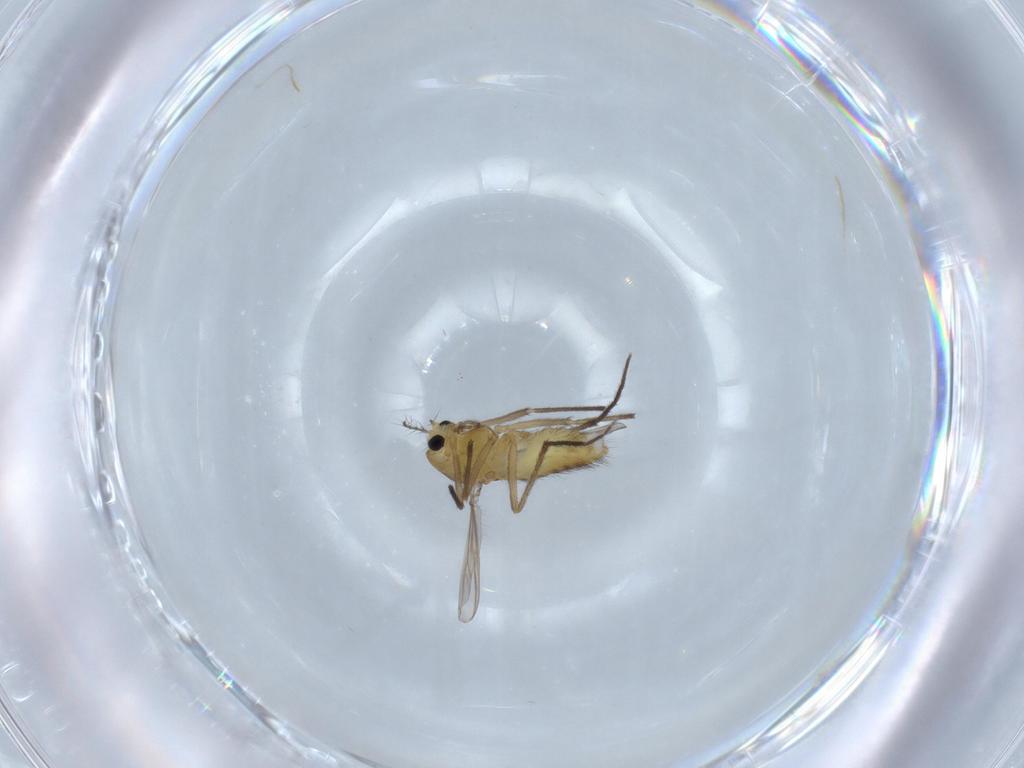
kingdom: Animalia
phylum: Arthropoda
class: Insecta
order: Diptera
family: Chironomidae
